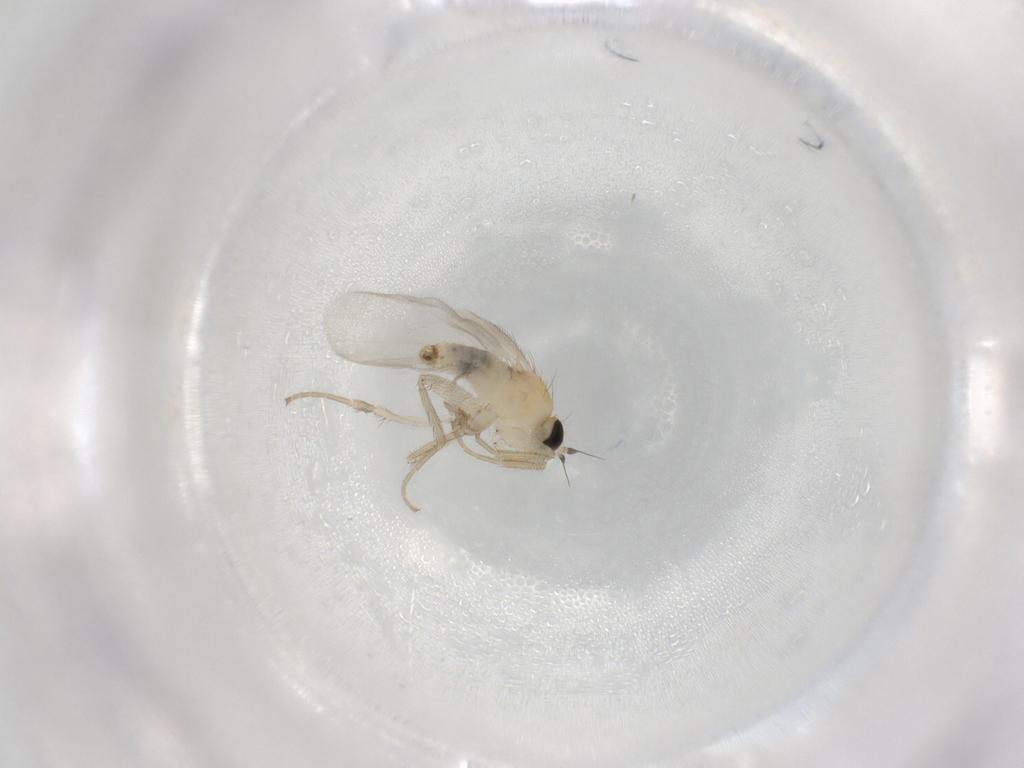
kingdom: Animalia
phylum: Arthropoda
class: Insecta
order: Diptera
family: Hybotidae
